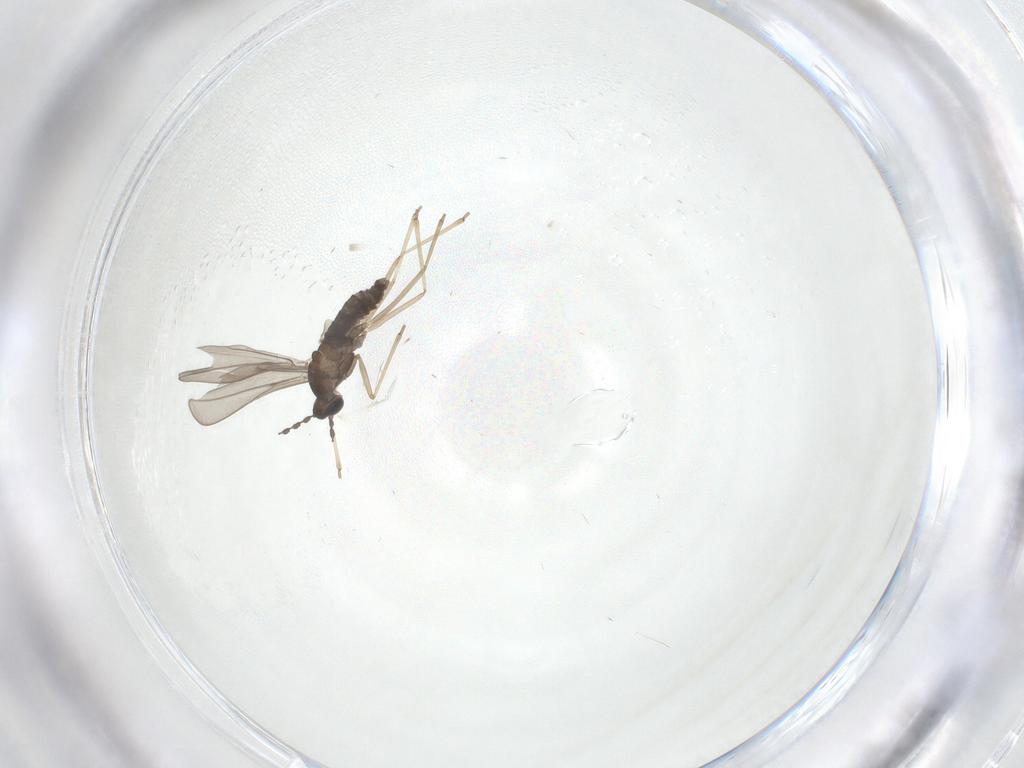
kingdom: Animalia
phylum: Arthropoda
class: Insecta
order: Diptera
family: Cecidomyiidae
